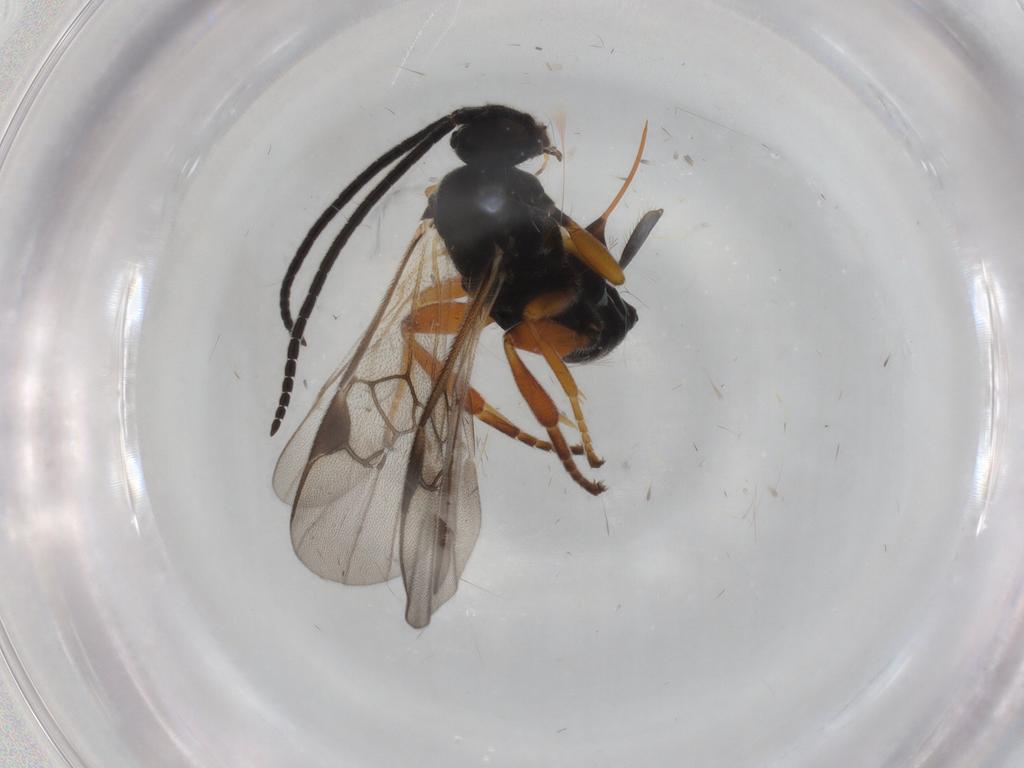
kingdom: Animalia
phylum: Arthropoda
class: Insecta
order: Hymenoptera
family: Braconidae
